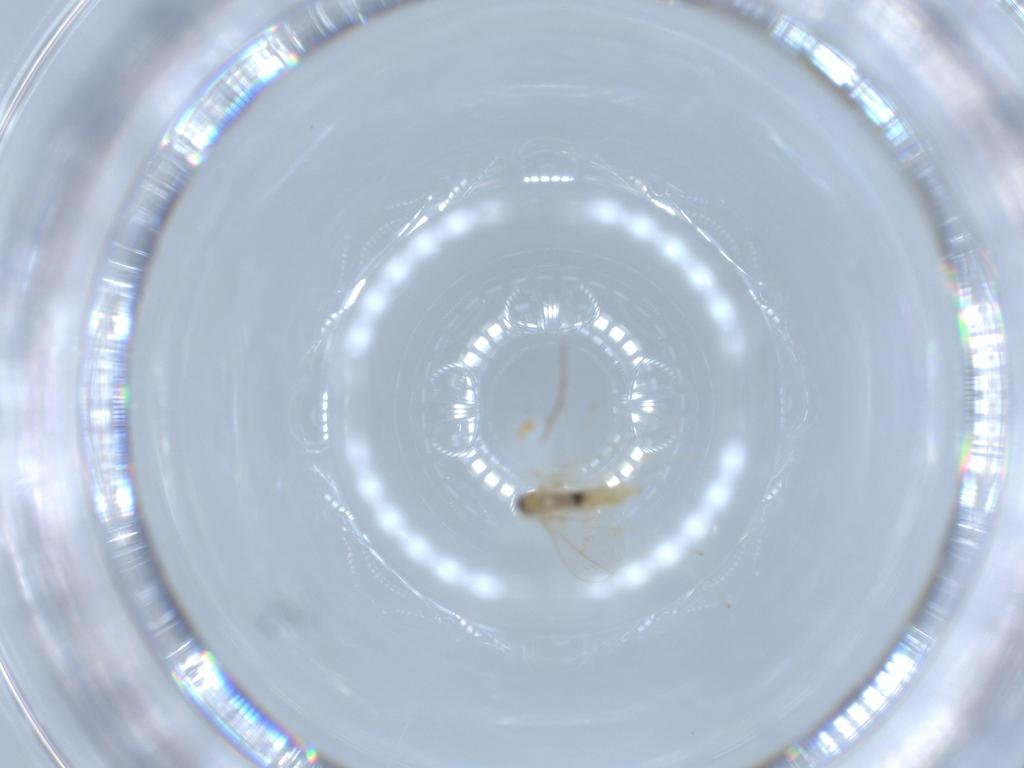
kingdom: Animalia
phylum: Arthropoda
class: Insecta
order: Diptera
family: Cecidomyiidae
